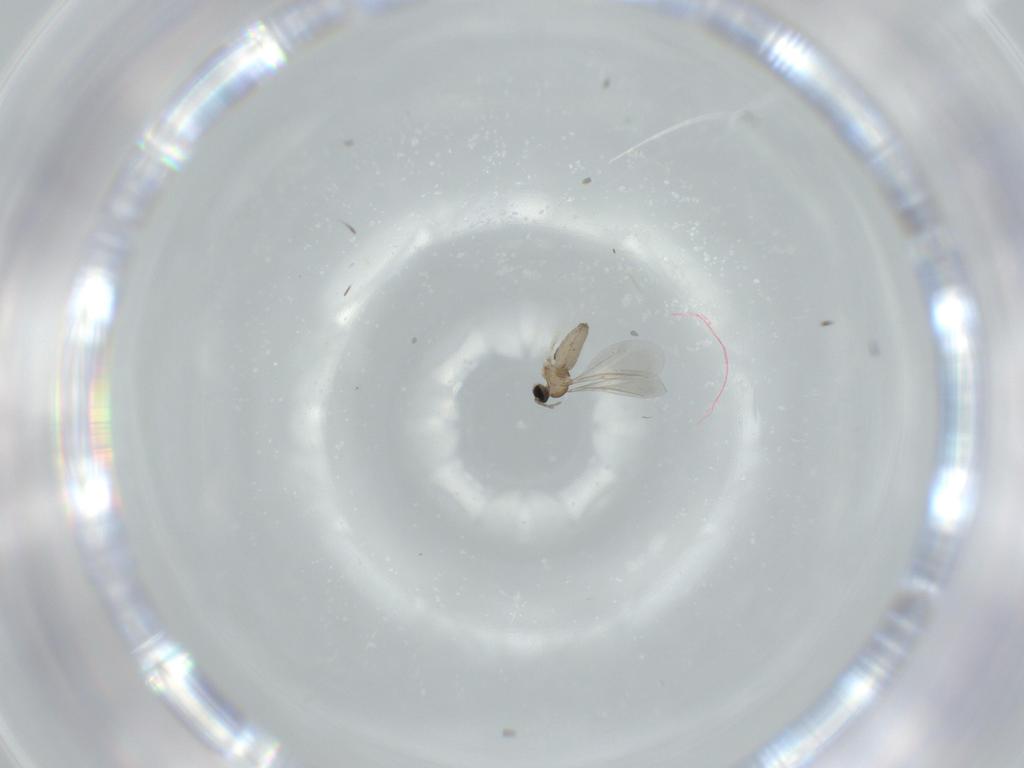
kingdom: Animalia
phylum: Arthropoda
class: Insecta
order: Diptera
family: Cecidomyiidae
